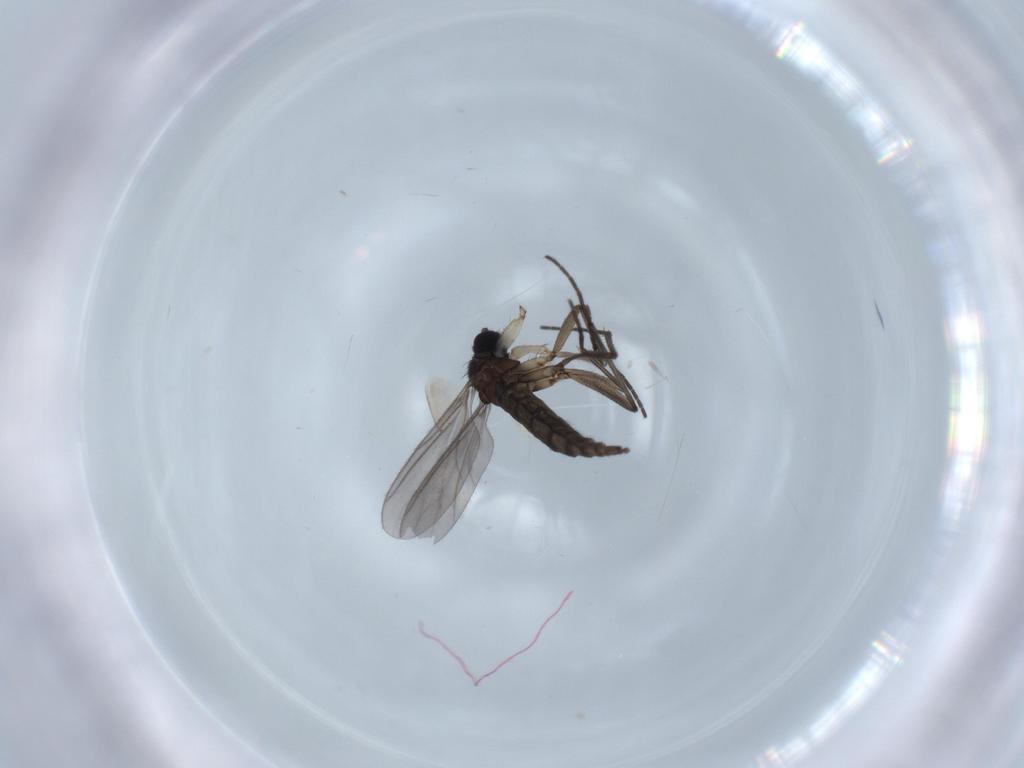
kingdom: Animalia
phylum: Arthropoda
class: Insecta
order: Diptera
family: Sciaridae
